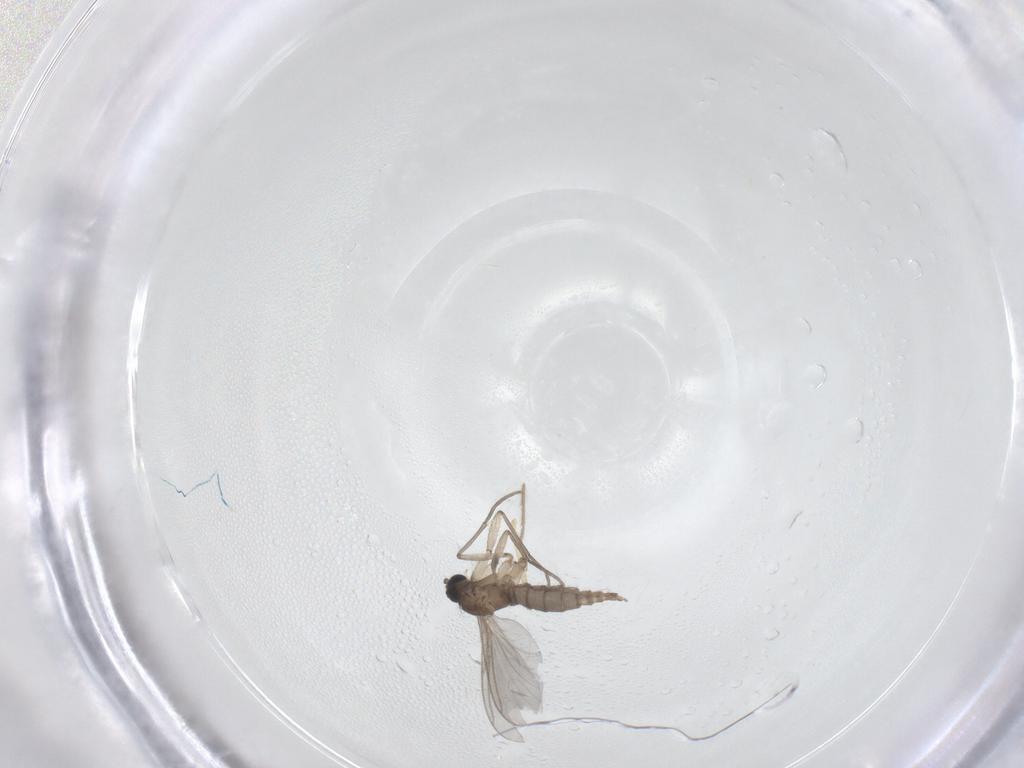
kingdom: Animalia
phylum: Arthropoda
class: Insecta
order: Diptera
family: Sciaridae
